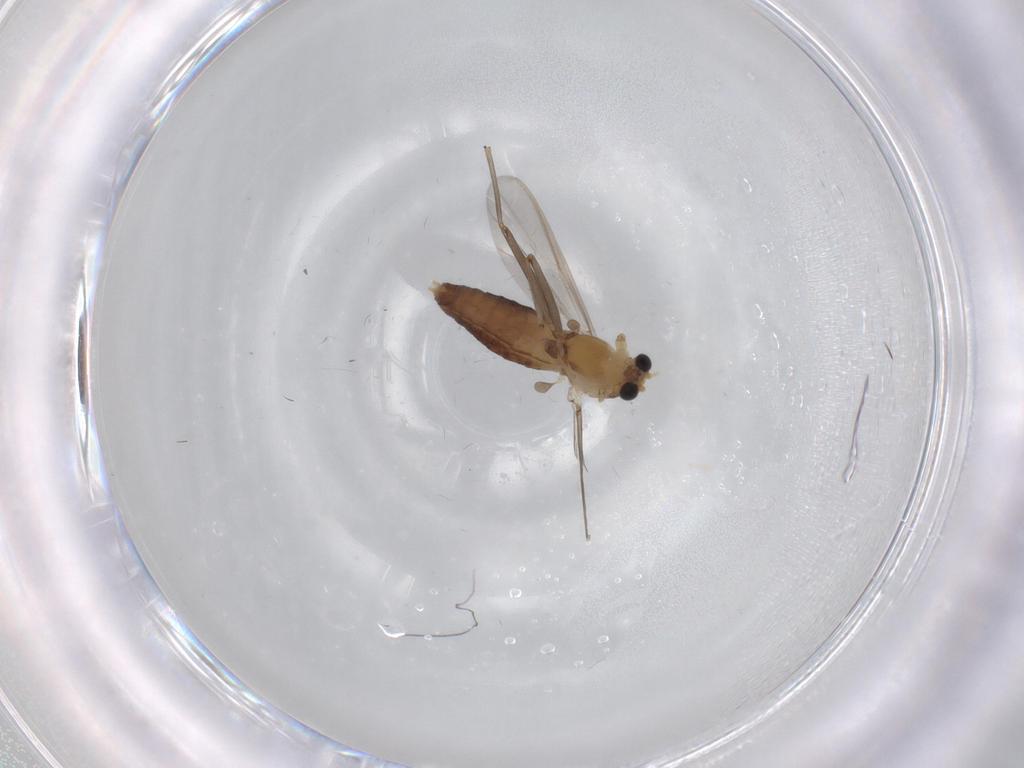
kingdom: Animalia
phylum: Arthropoda
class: Insecta
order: Diptera
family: Chironomidae
